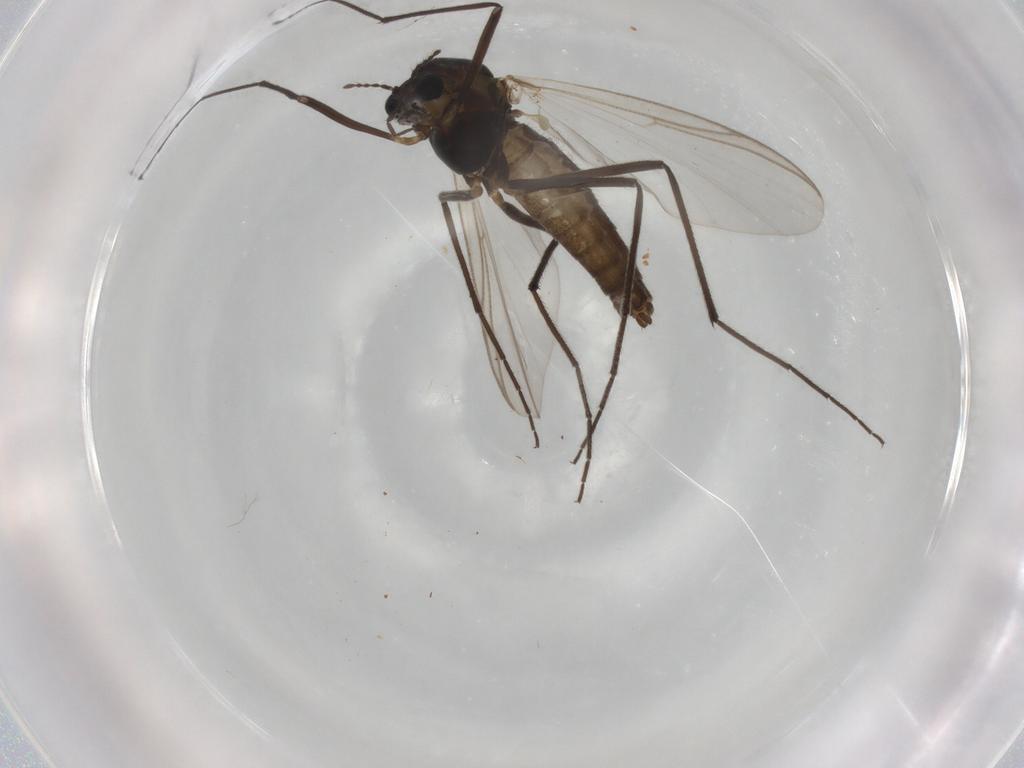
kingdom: Animalia
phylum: Arthropoda
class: Insecta
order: Diptera
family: Chironomidae
